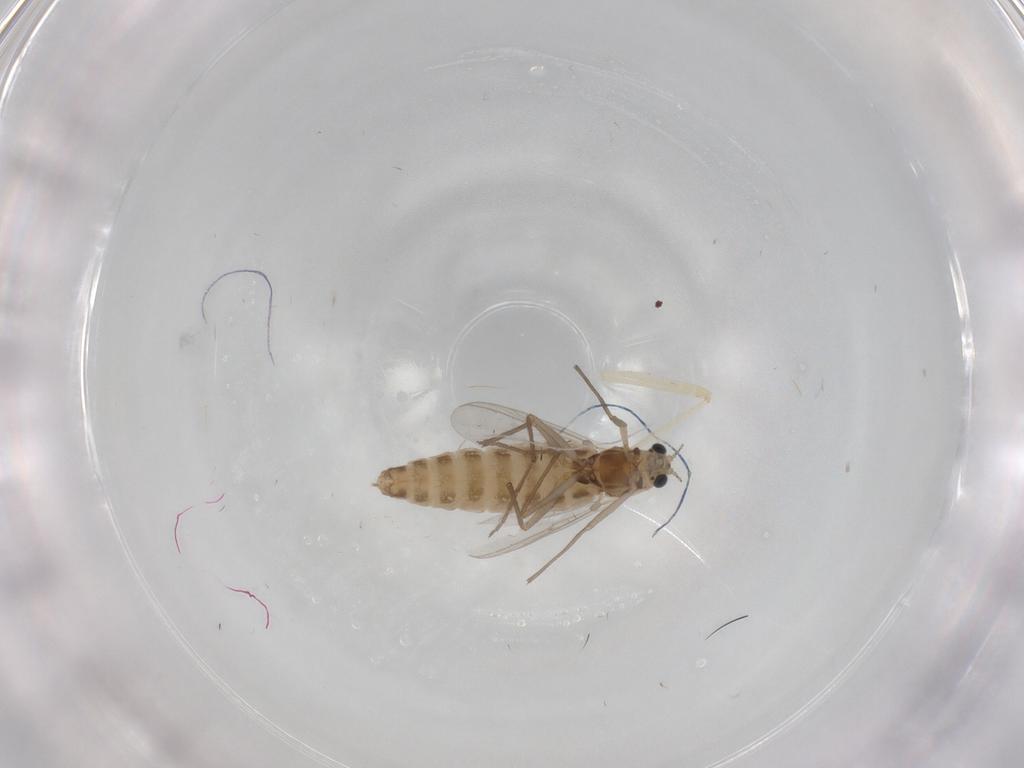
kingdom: Animalia
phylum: Arthropoda
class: Insecta
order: Diptera
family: Chironomidae
